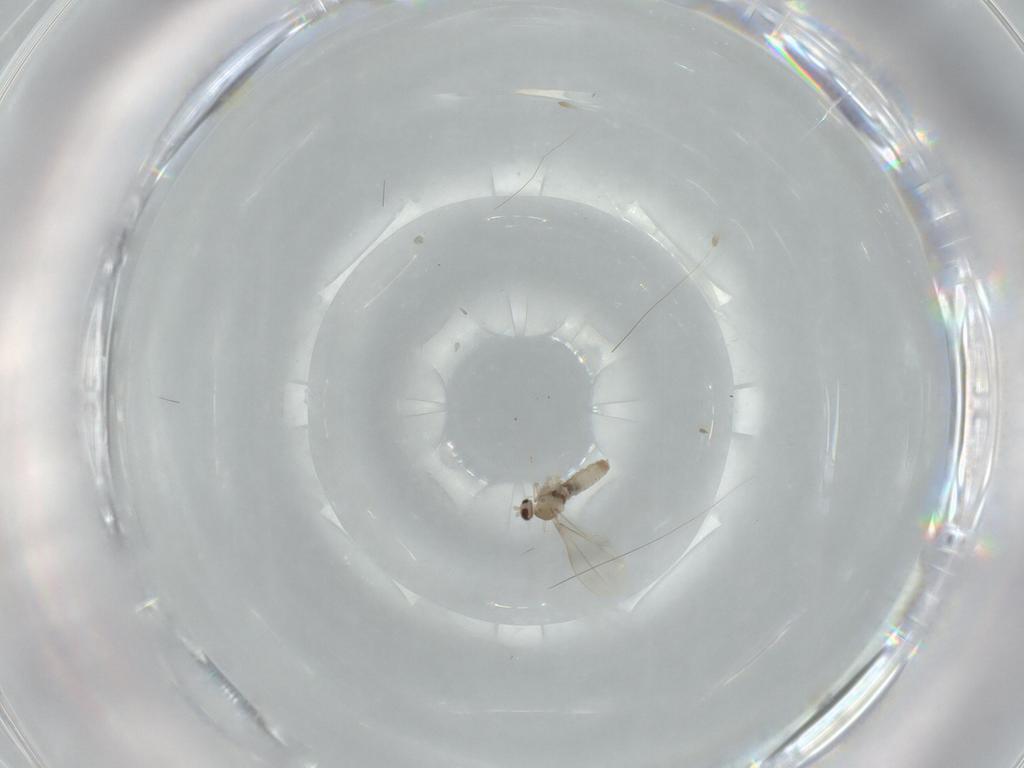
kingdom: Animalia
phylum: Arthropoda
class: Insecta
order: Diptera
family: Cecidomyiidae
